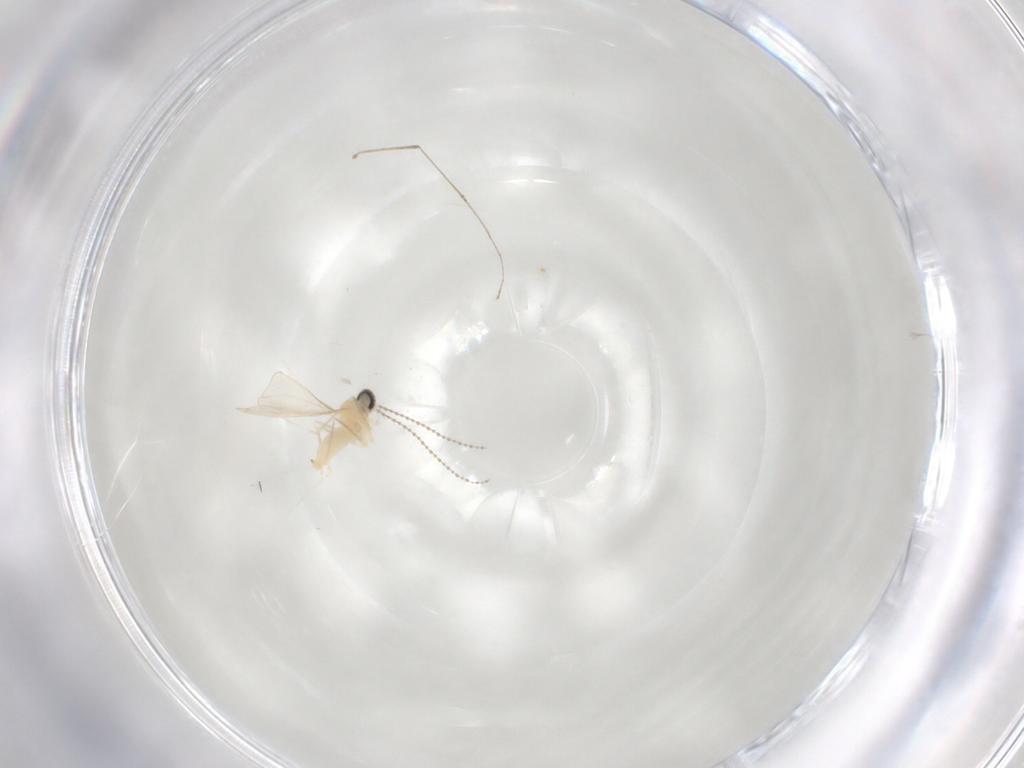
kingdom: Animalia
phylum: Arthropoda
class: Insecta
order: Diptera
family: Cecidomyiidae
